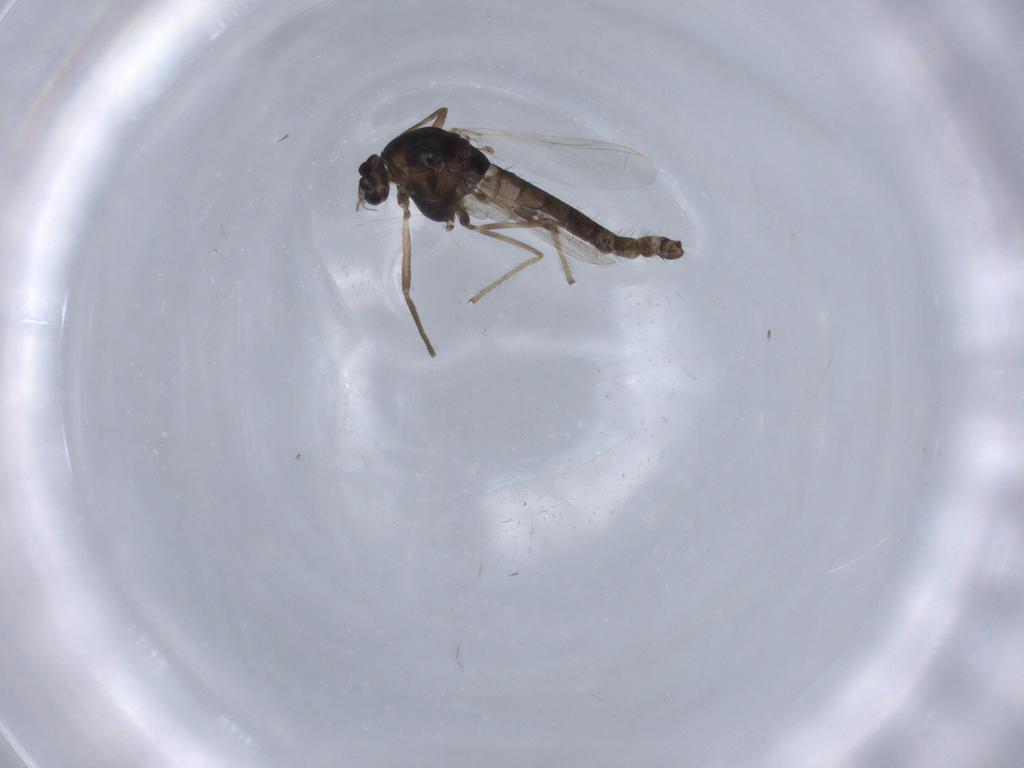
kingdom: Animalia
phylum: Arthropoda
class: Insecta
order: Diptera
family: Chironomidae
